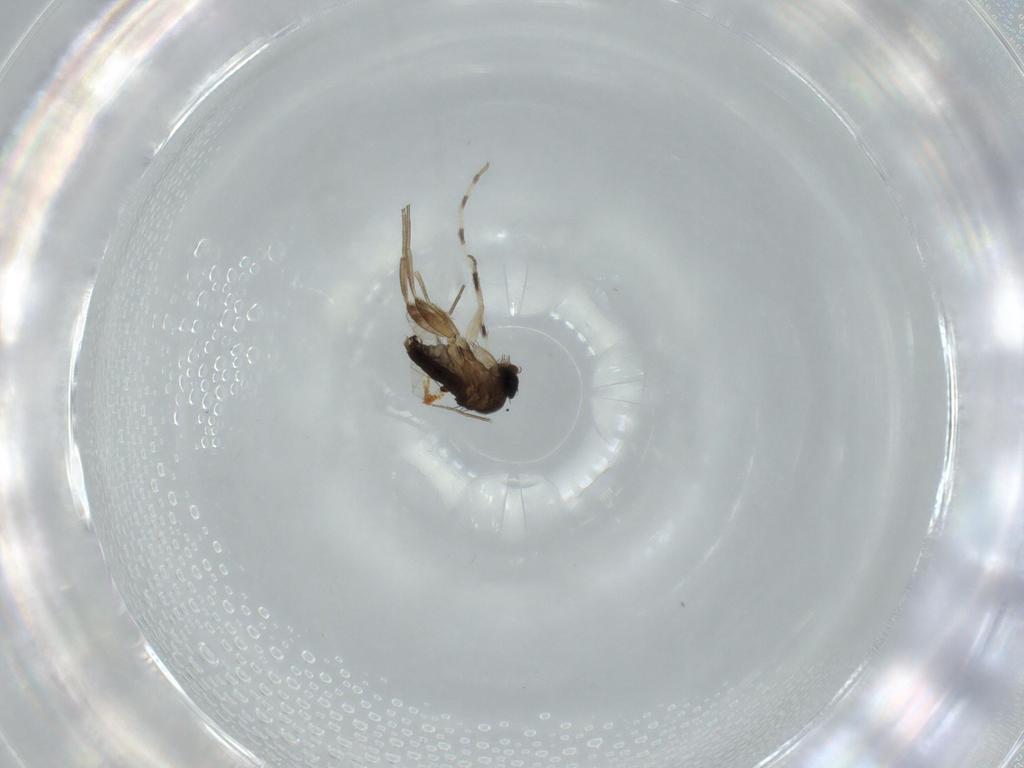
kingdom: Animalia
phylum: Arthropoda
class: Insecta
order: Diptera
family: Phoridae
